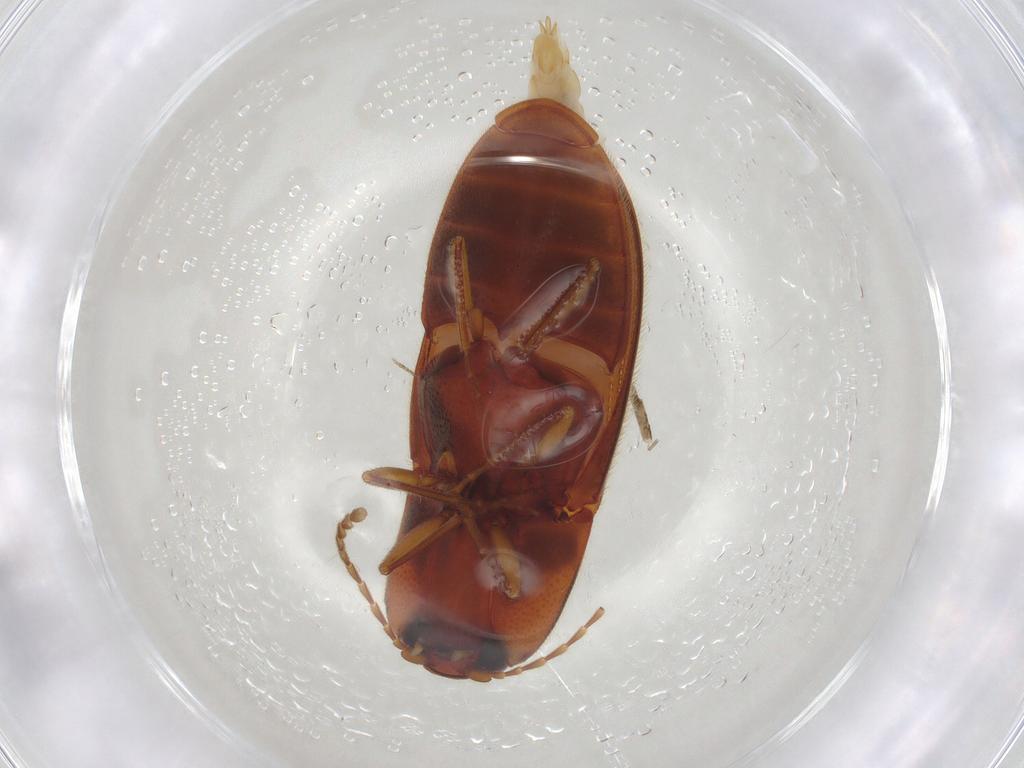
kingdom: Animalia
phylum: Arthropoda
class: Insecta
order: Coleoptera
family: Elateridae
